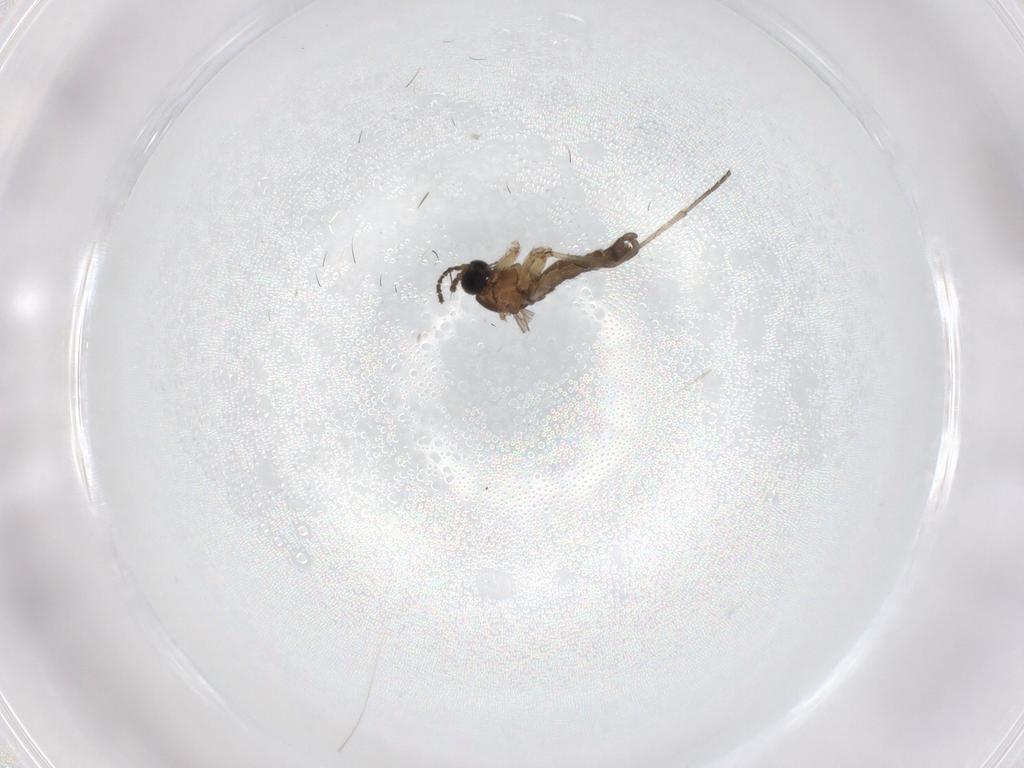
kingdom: Animalia
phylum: Arthropoda
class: Insecta
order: Diptera
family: Sciaridae
